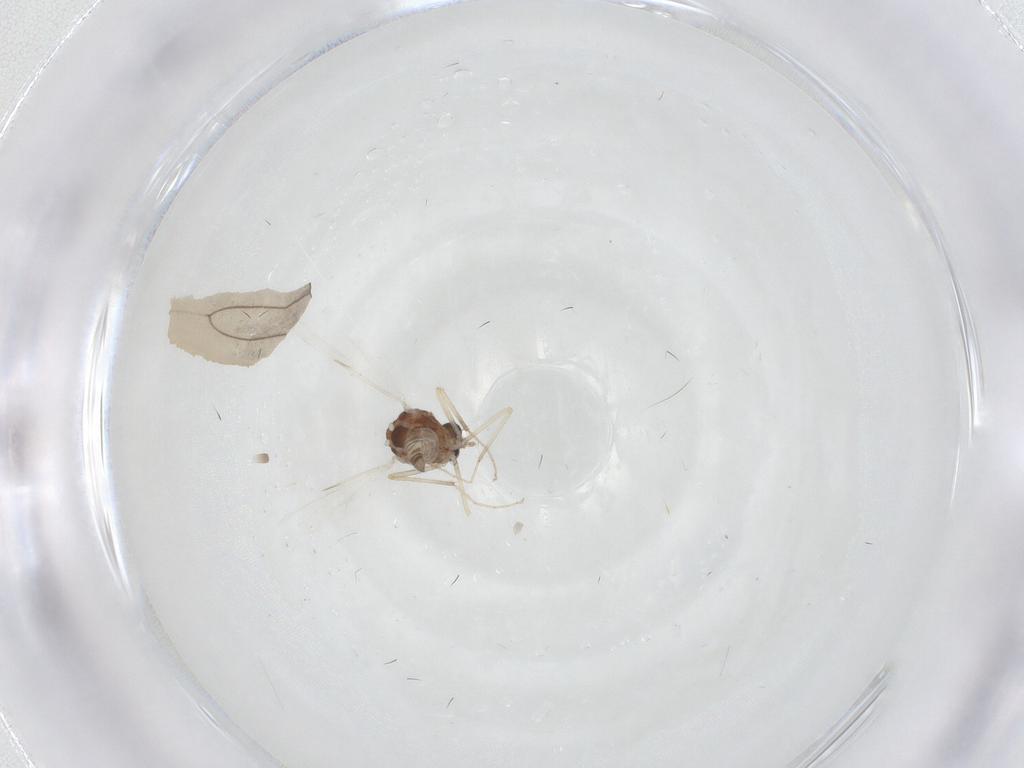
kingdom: Animalia
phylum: Arthropoda
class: Insecta
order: Diptera
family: Ceratopogonidae
